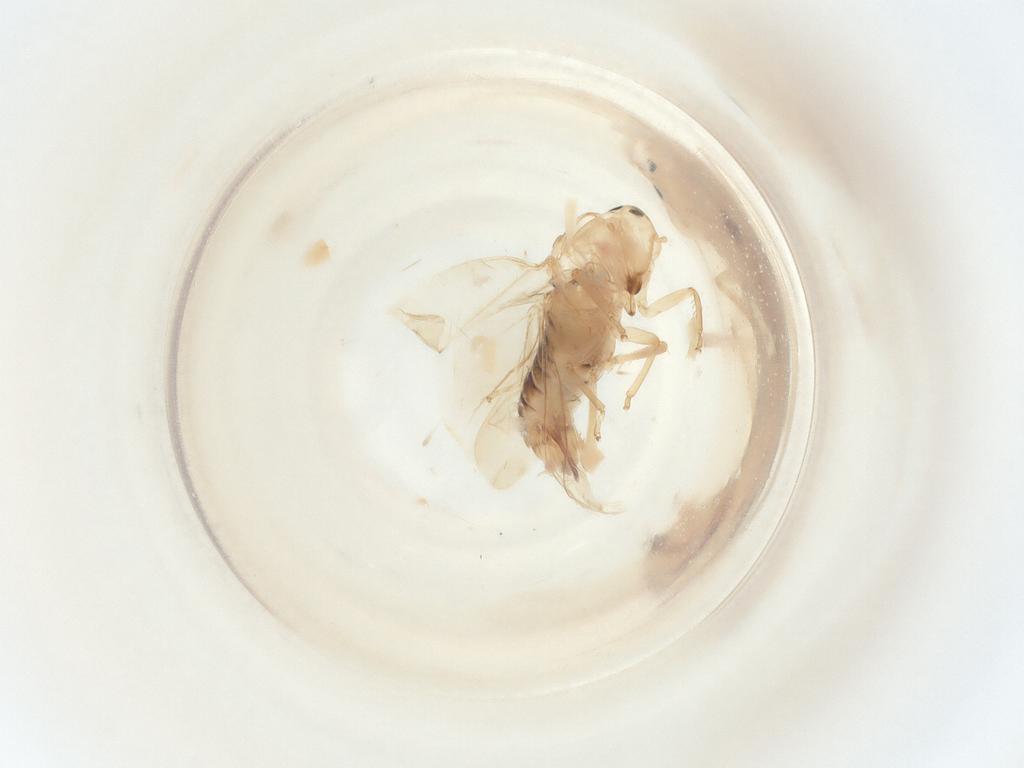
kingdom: Animalia
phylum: Arthropoda
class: Insecta
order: Hemiptera
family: Cicadellidae
